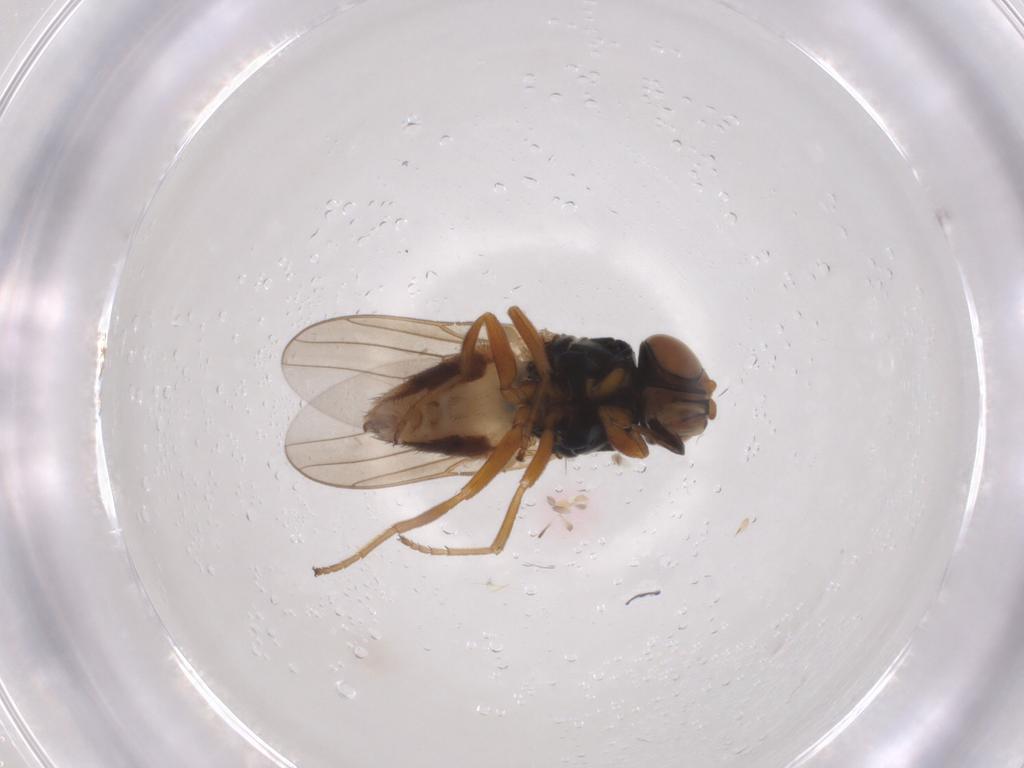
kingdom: Animalia
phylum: Arthropoda
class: Insecta
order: Diptera
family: Chloropidae
